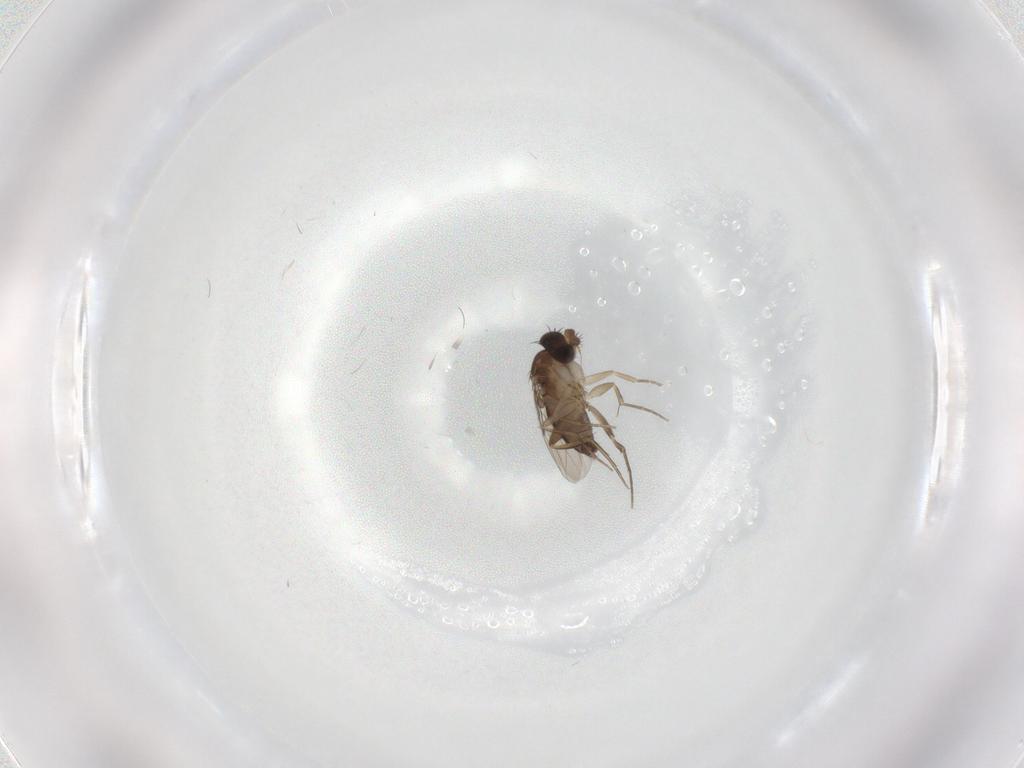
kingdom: Animalia
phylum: Arthropoda
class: Insecta
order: Diptera
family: Phoridae
